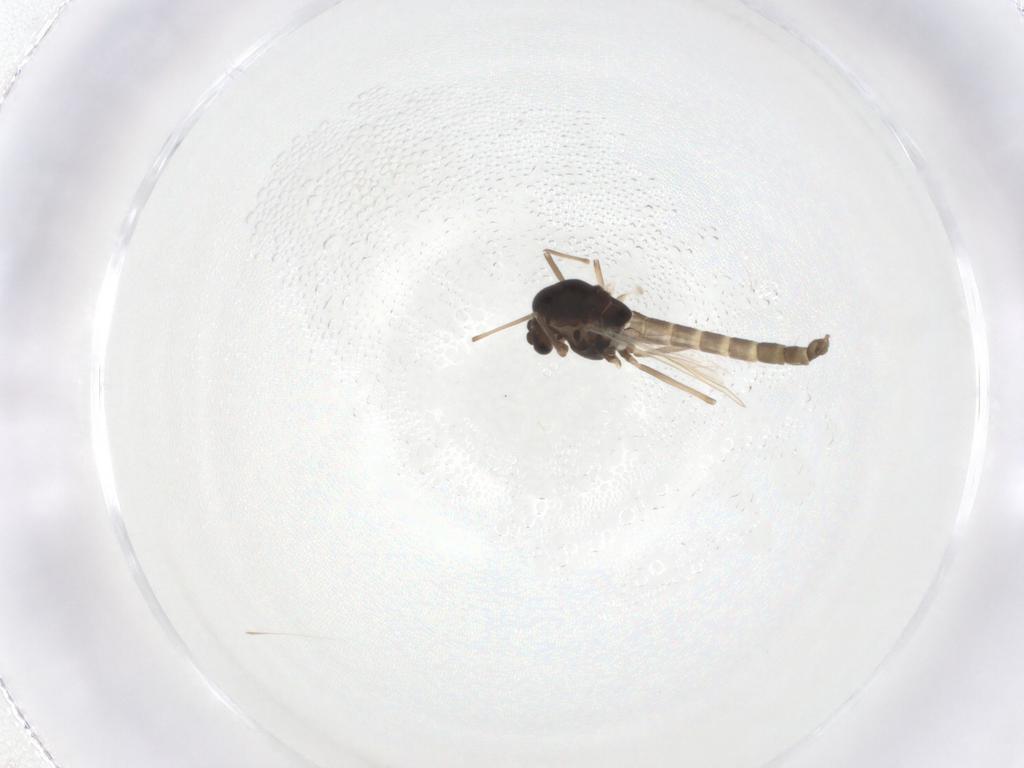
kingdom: Animalia
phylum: Arthropoda
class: Insecta
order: Diptera
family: Chironomidae
